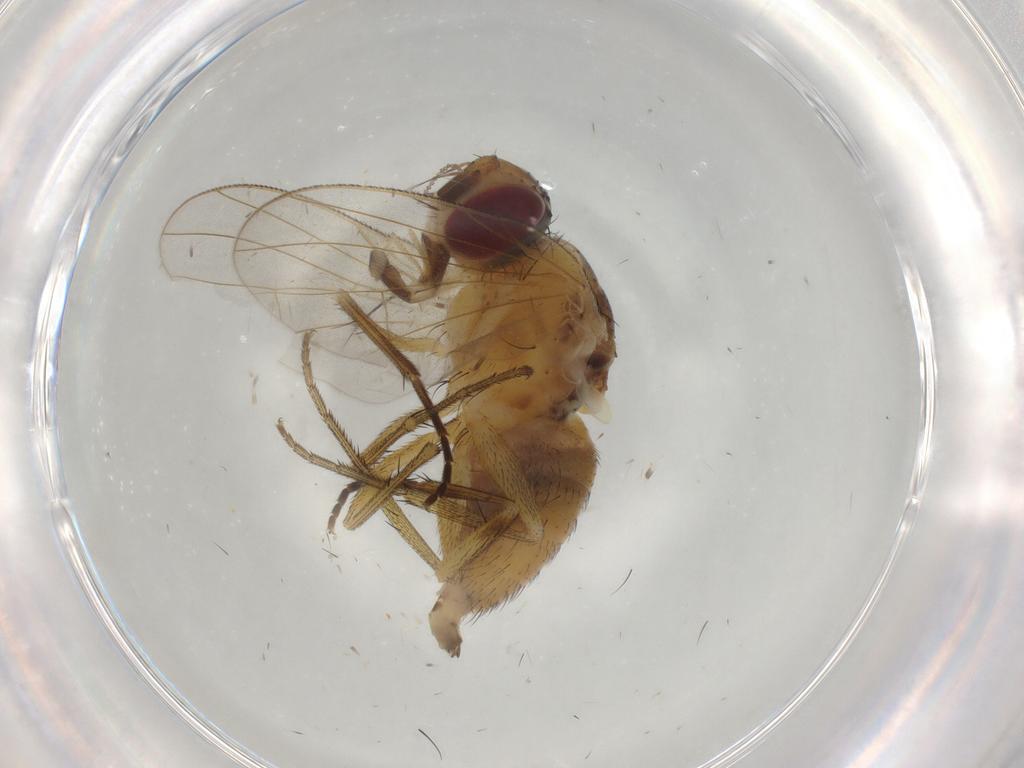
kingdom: Animalia
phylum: Arthropoda
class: Insecta
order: Diptera
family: Muscidae
